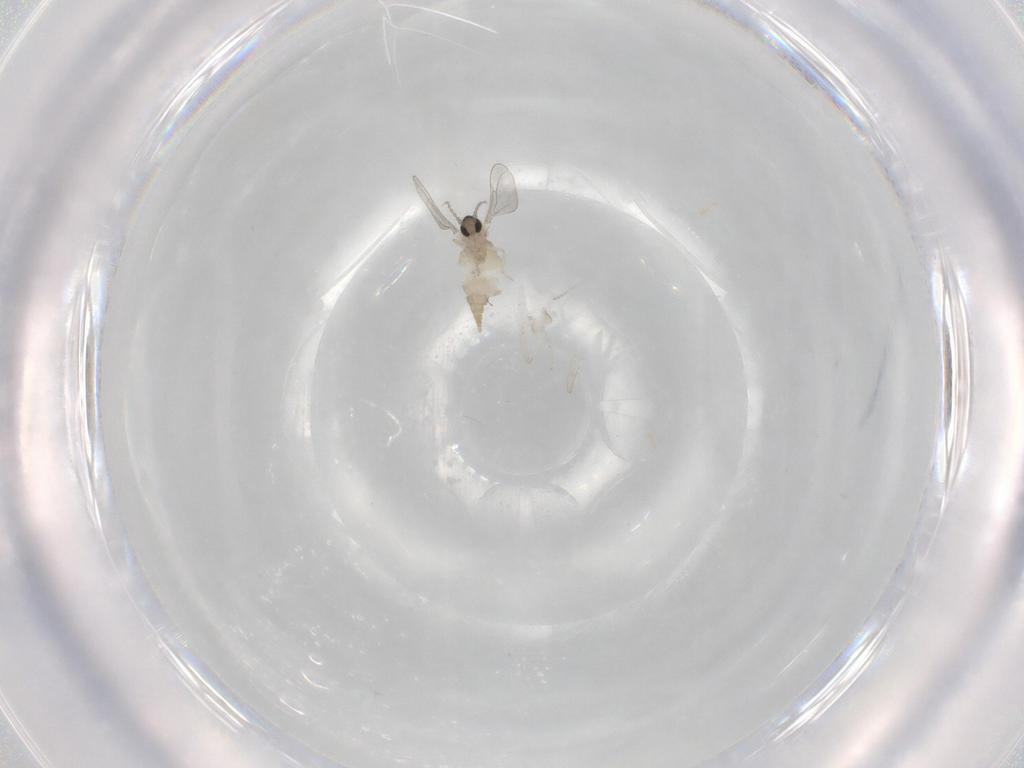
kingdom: Animalia
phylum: Arthropoda
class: Insecta
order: Diptera
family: Cecidomyiidae
